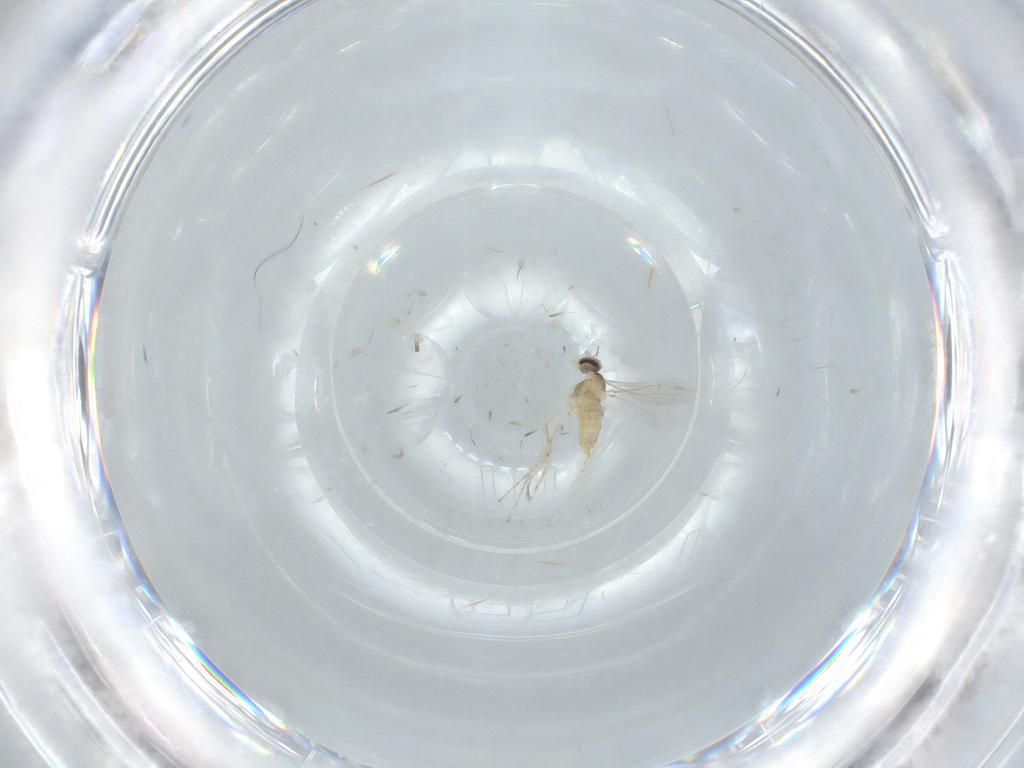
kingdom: Animalia
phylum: Arthropoda
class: Insecta
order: Diptera
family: Cecidomyiidae
